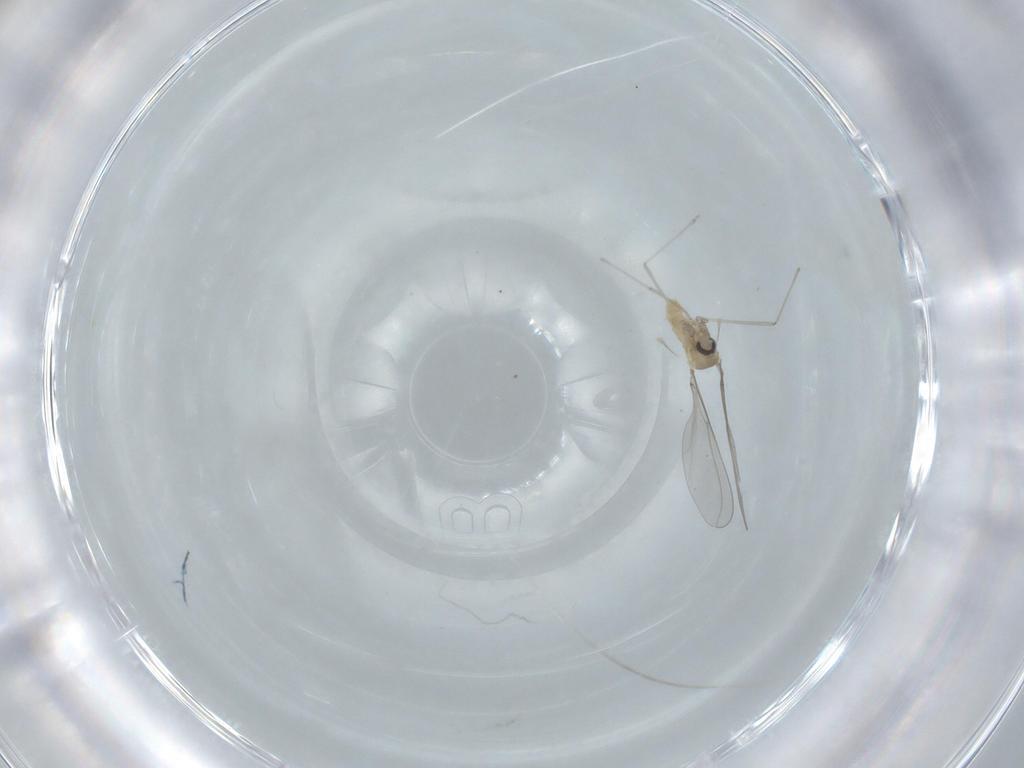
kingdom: Animalia
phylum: Arthropoda
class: Insecta
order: Diptera
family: Cecidomyiidae
